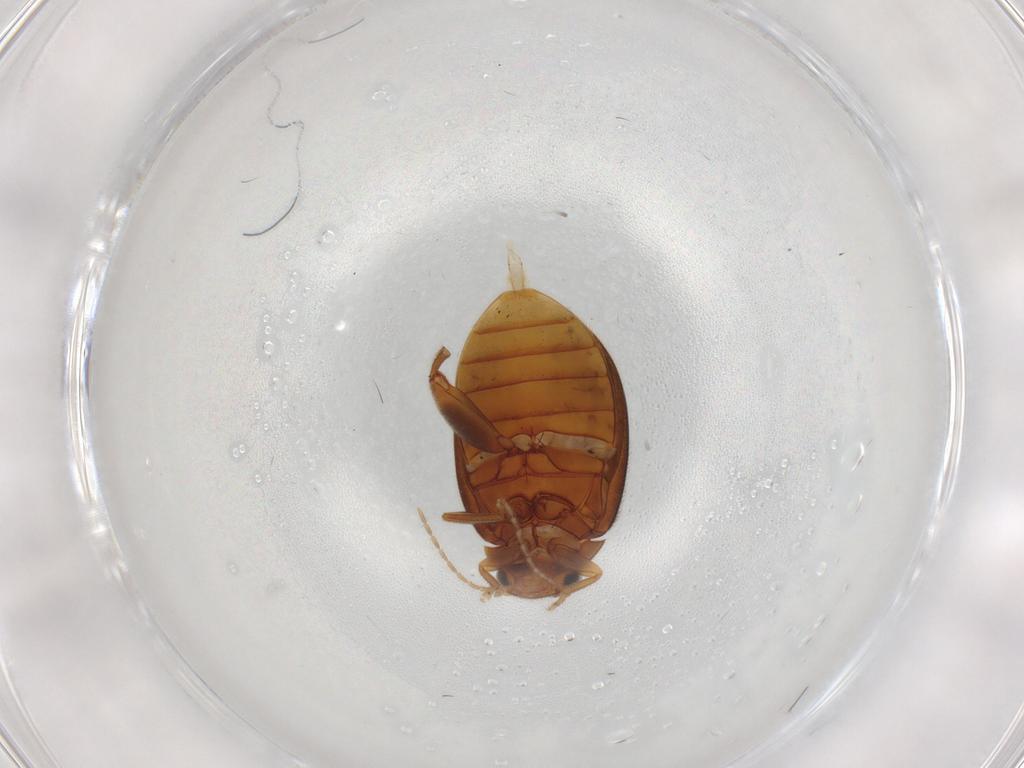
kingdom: Animalia
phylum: Arthropoda
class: Insecta
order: Coleoptera
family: Scirtidae
